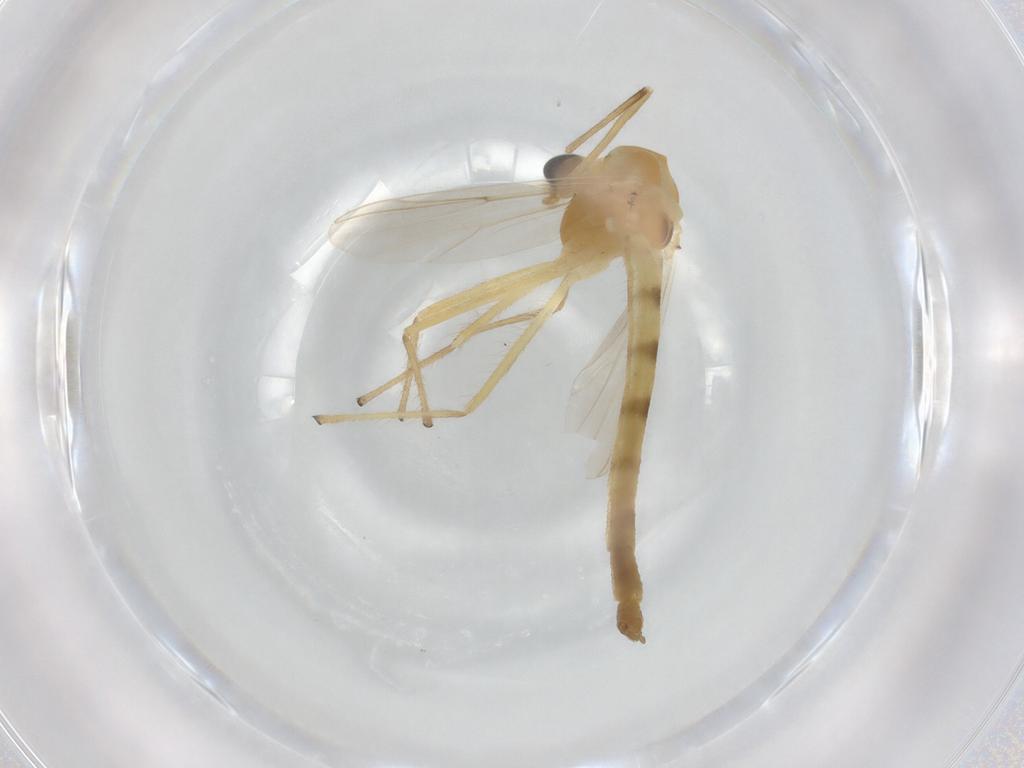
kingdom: Animalia
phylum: Arthropoda
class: Insecta
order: Diptera
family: Chironomidae
